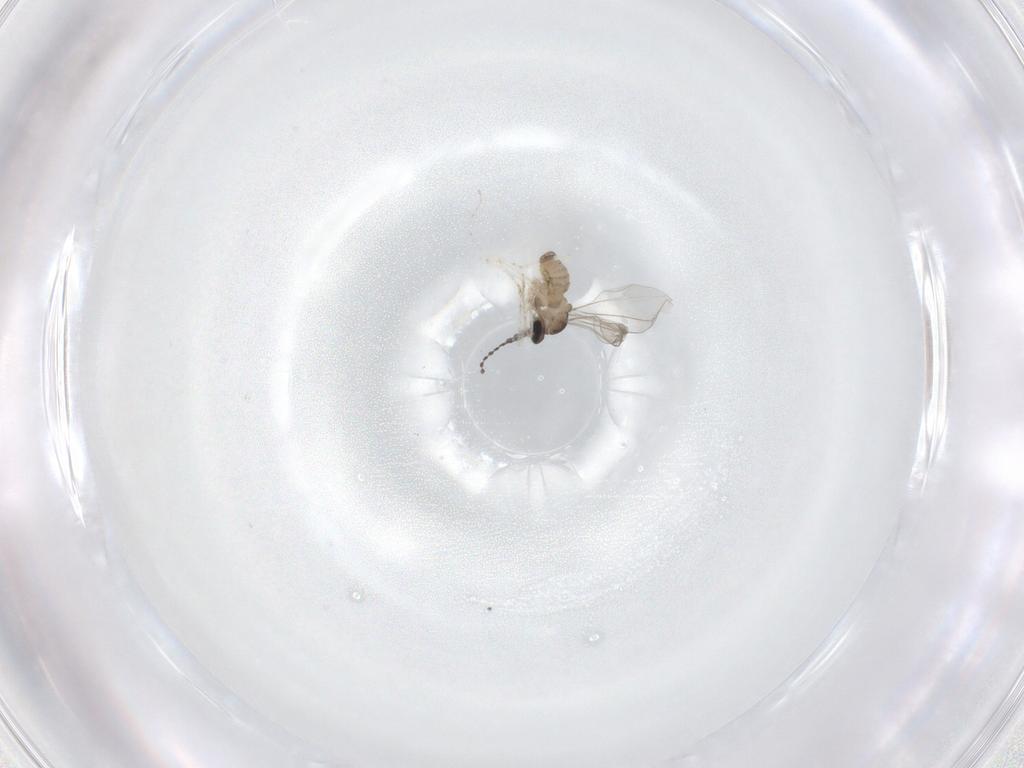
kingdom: Animalia
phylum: Arthropoda
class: Insecta
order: Diptera
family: Cecidomyiidae
